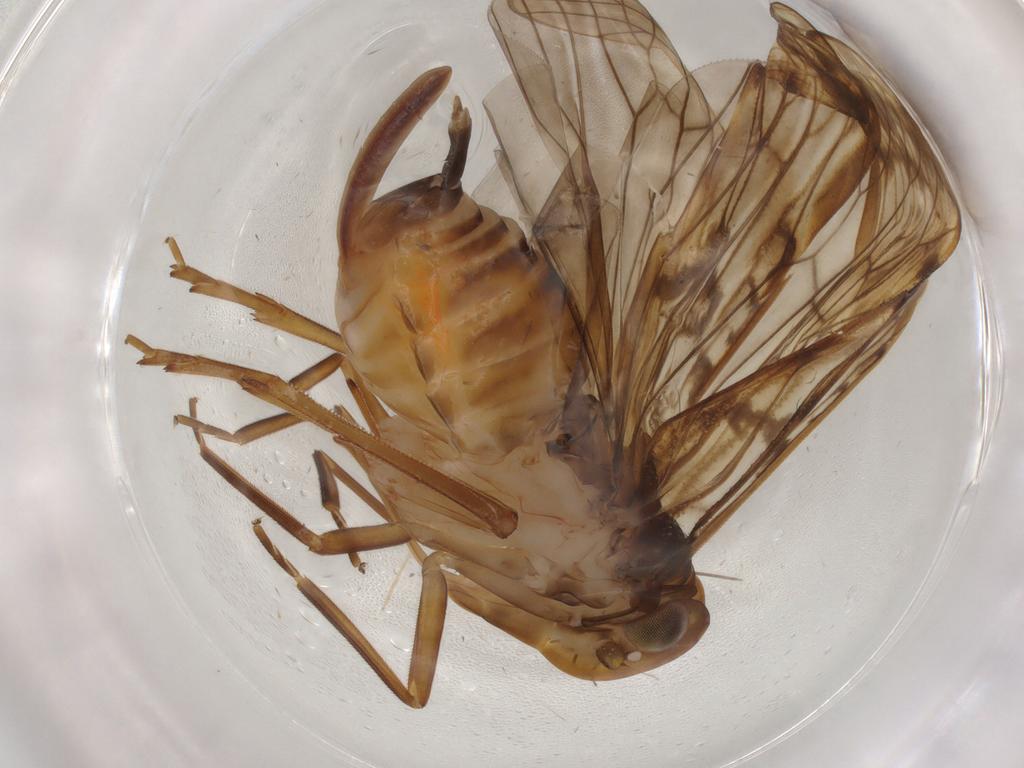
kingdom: Animalia
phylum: Arthropoda
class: Insecta
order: Hemiptera
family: Cixiidae
